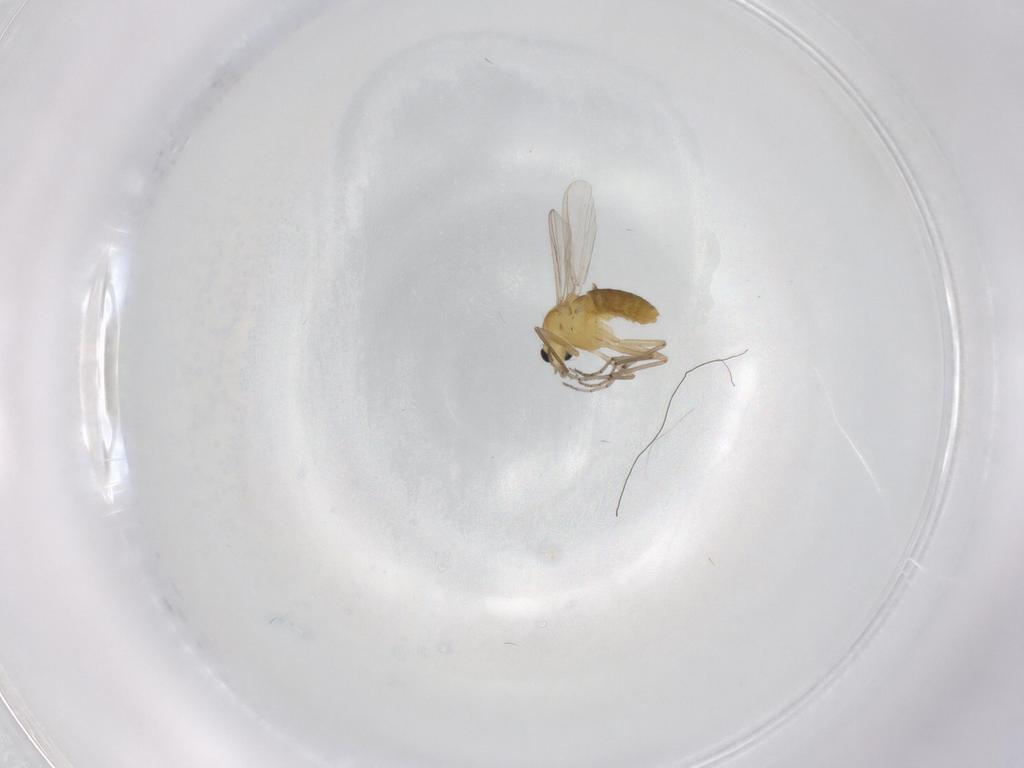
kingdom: Animalia
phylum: Arthropoda
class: Insecta
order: Diptera
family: Chironomidae
